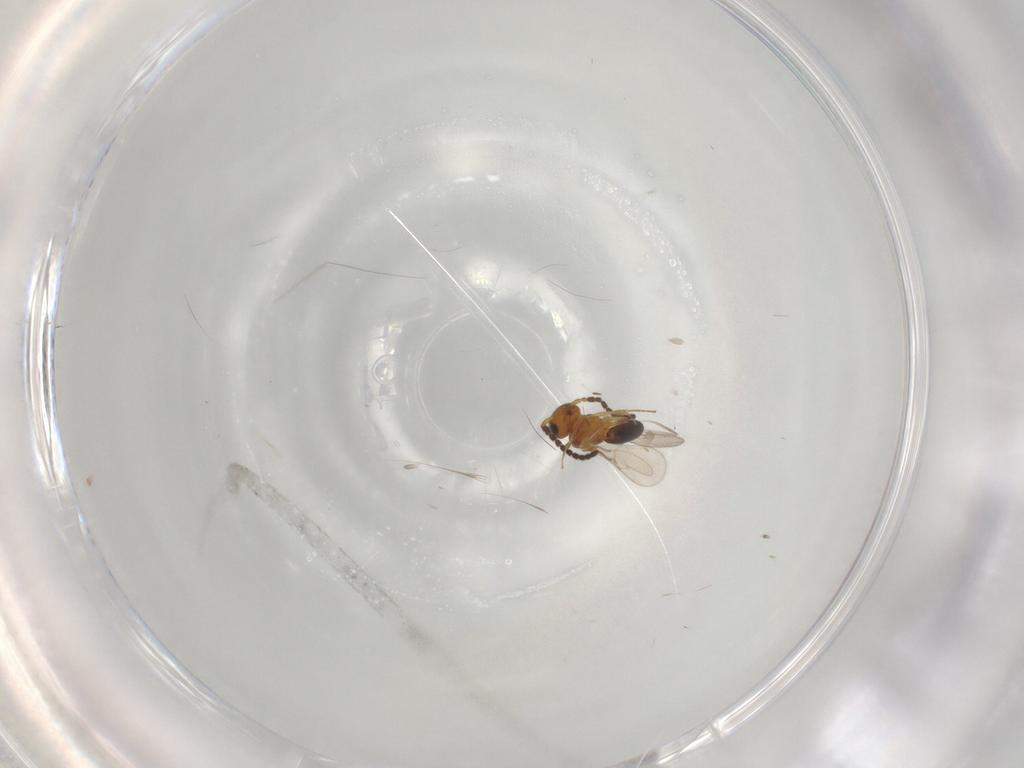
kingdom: Animalia
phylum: Arthropoda
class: Insecta
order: Hymenoptera
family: Scelionidae
